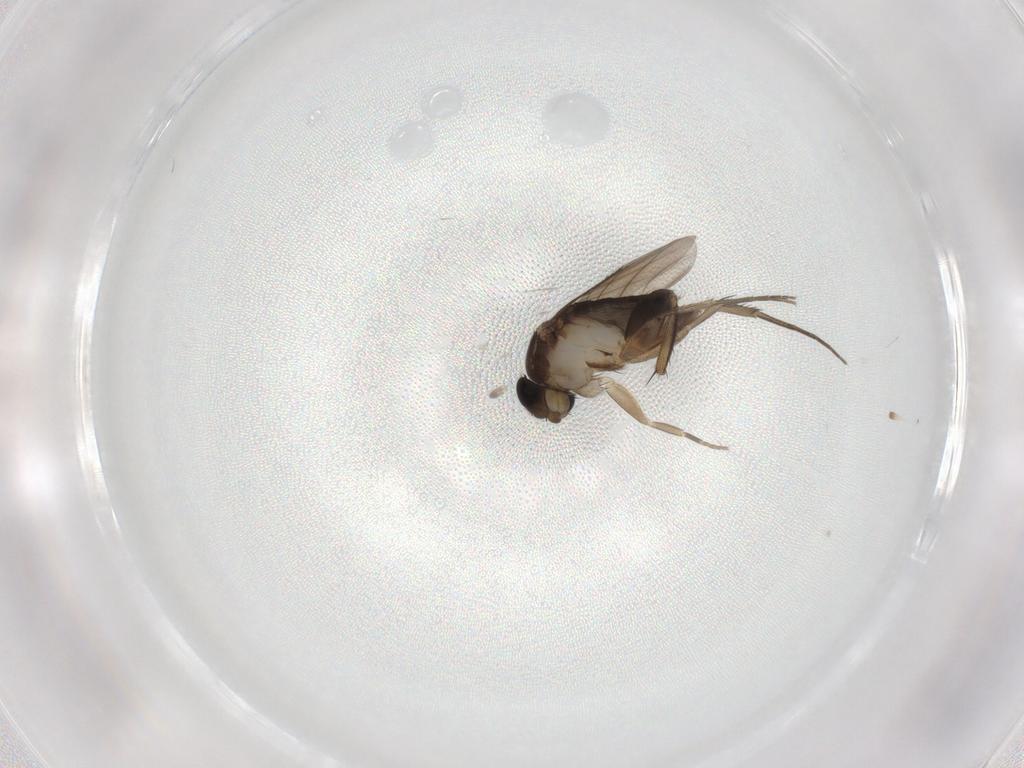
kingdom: Animalia
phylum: Arthropoda
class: Insecta
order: Diptera
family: Phoridae
